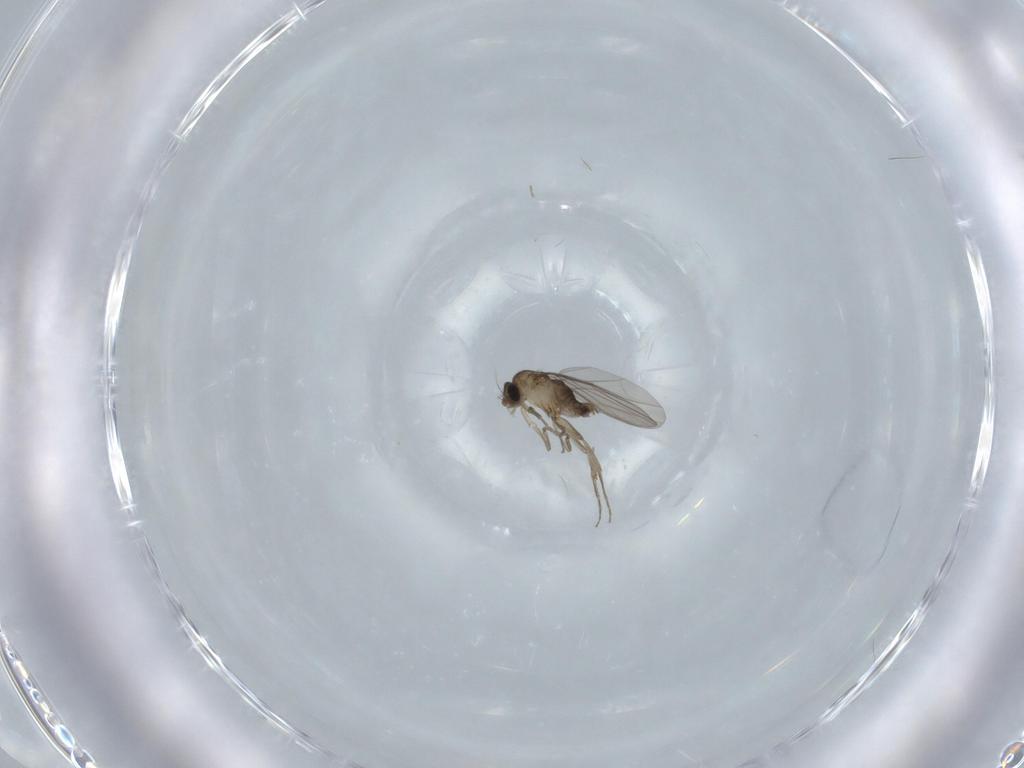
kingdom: Animalia
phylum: Arthropoda
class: Insecta
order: Diptera
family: Phoridae
